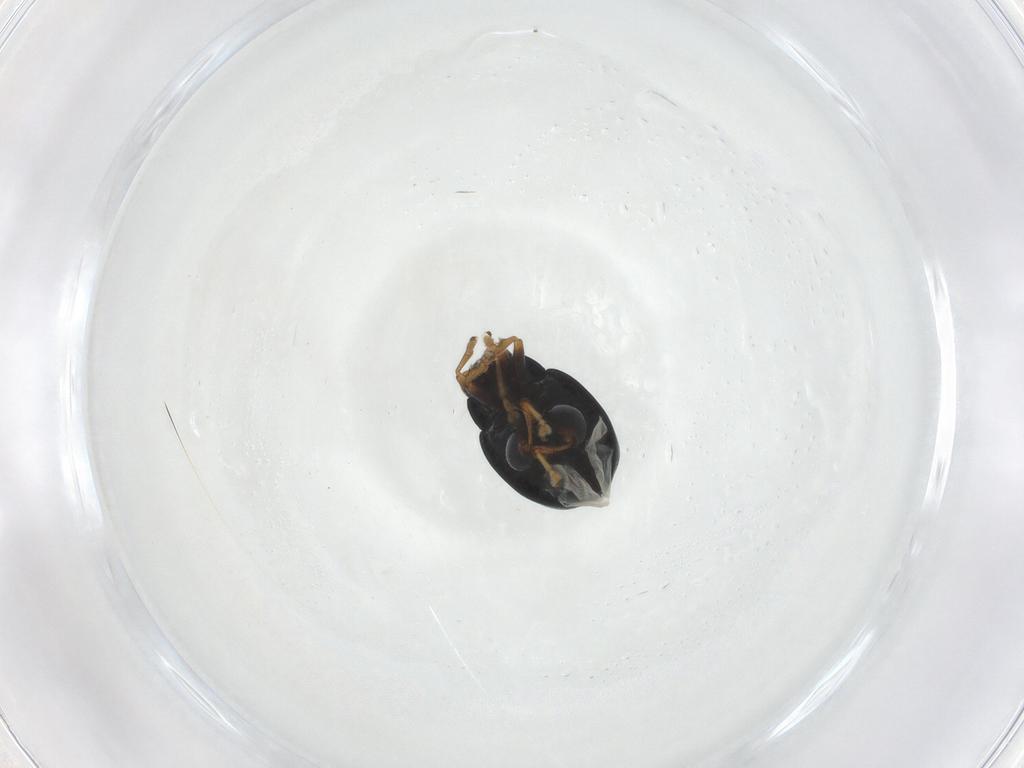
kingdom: Animalia
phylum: Arthropoda
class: Insecta
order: Coleoptera
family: Chrysomelidae
